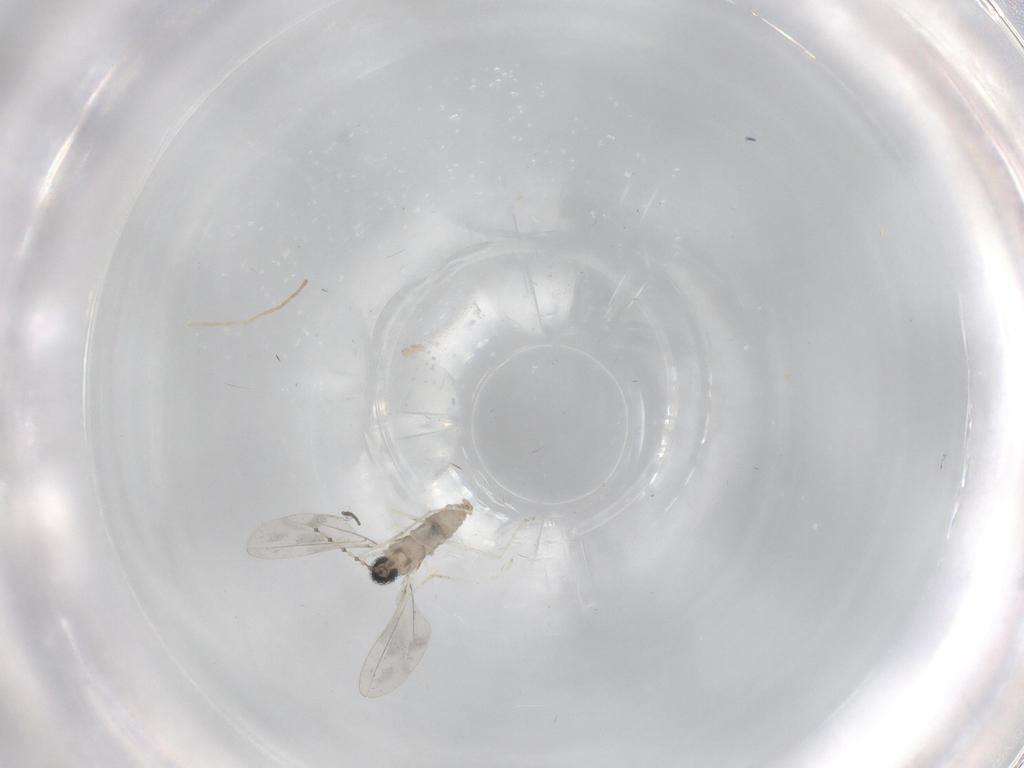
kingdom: Animalia
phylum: Arthropoda
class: Insecta
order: Diptera
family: Cecidomyiidae
